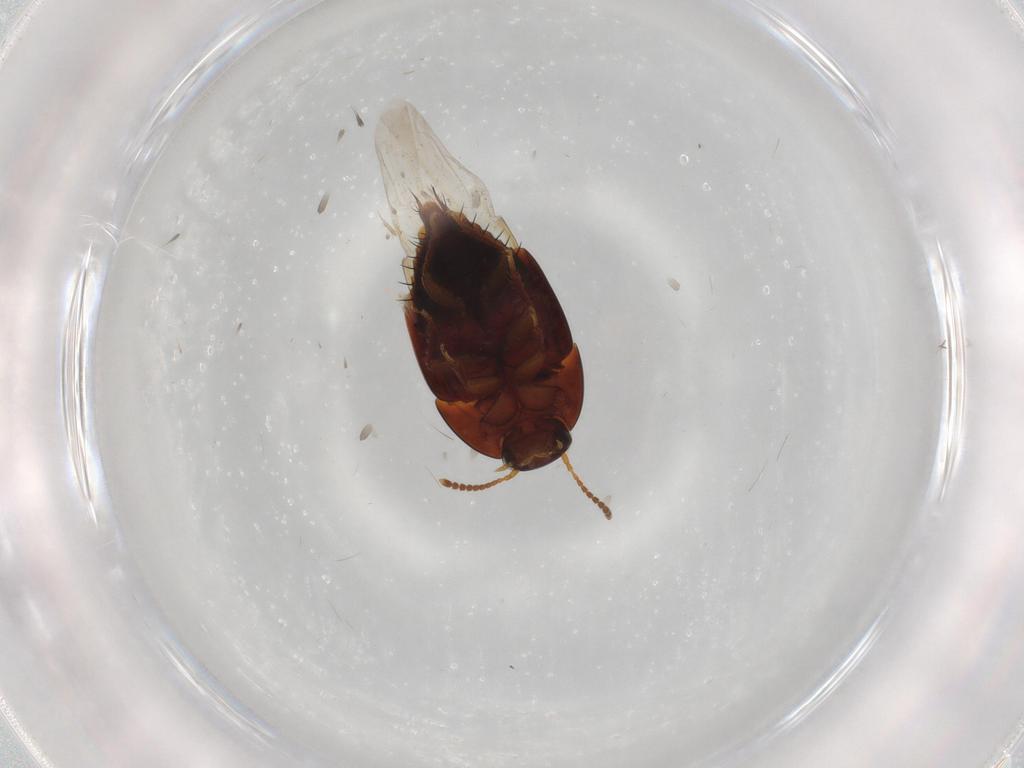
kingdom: Animalia
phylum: Arthropoda
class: Insecta
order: Coleoptera
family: Staphylinidae
